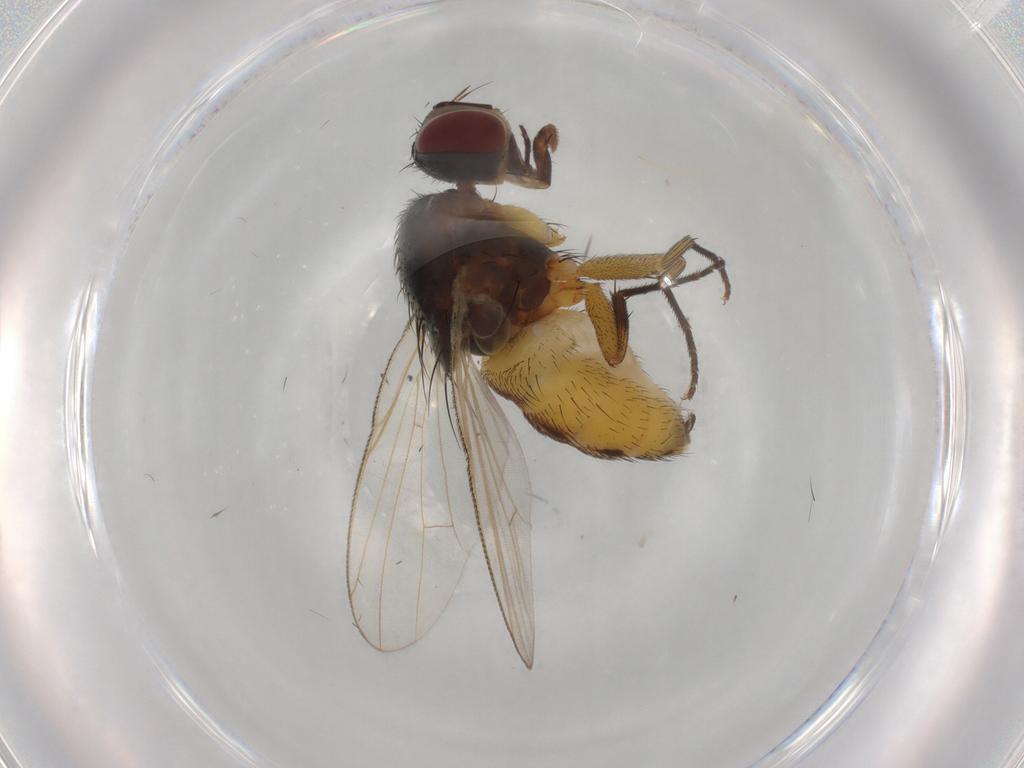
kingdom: Animalia
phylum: Arthropoda
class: Insecta
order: Diptera
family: Muscidae
